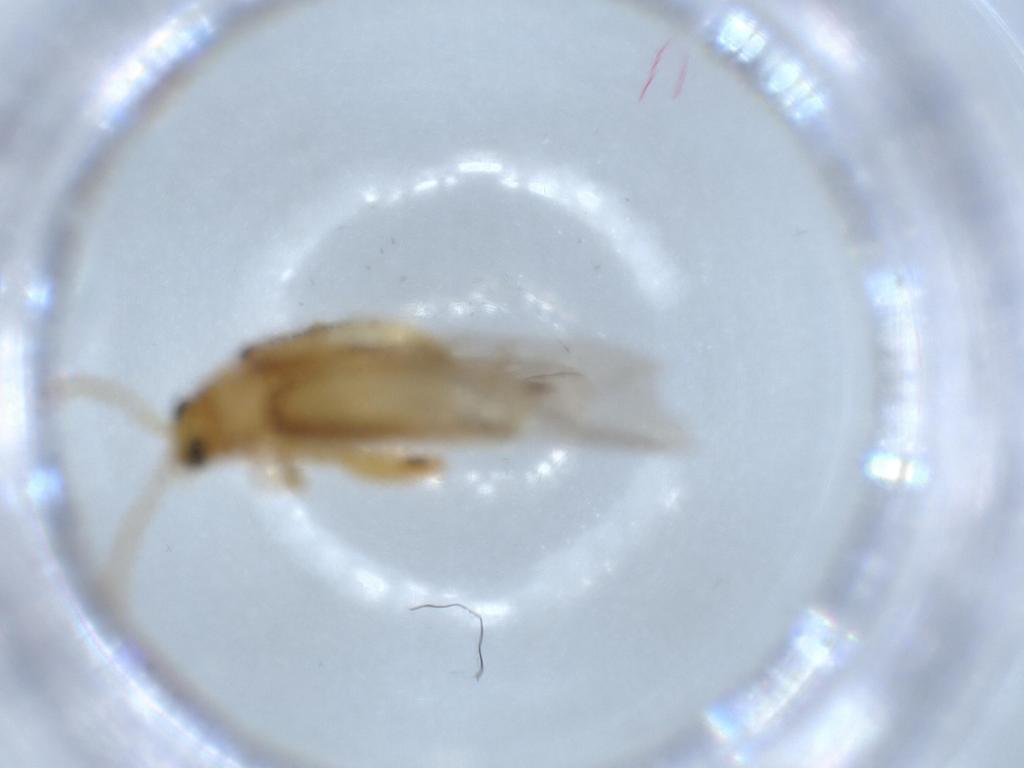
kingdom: Animalia
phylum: Arthropoda
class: Insecta
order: Coleoptera
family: Chrysomelidae
